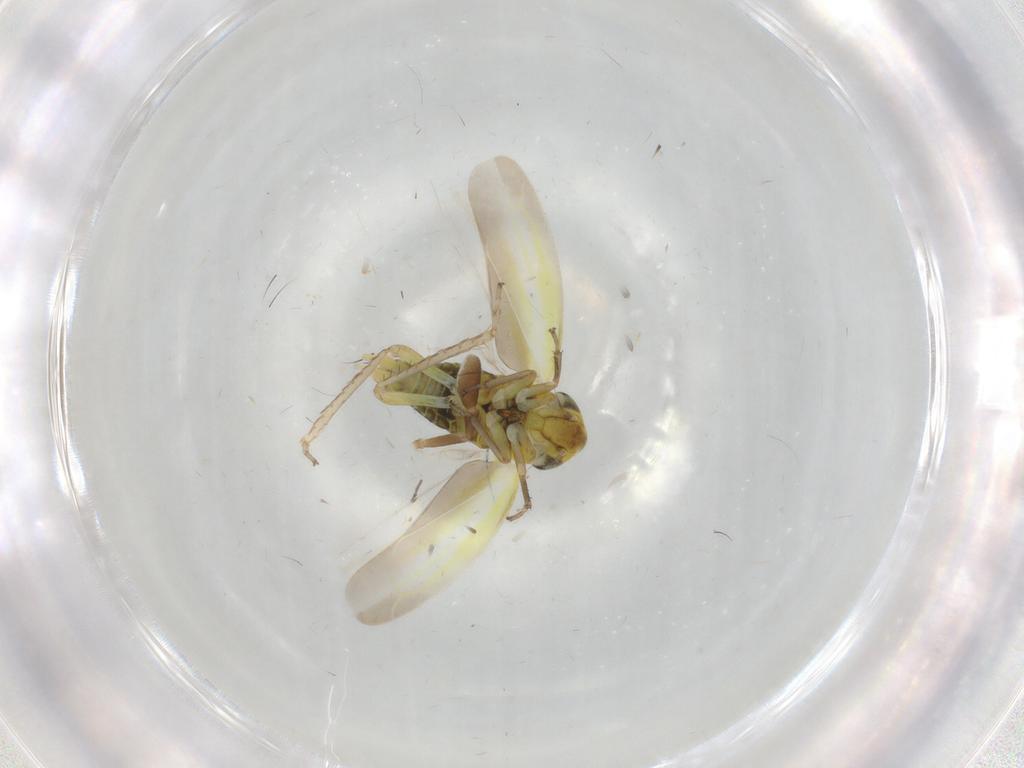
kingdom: Animalia
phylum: Arthropoda
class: Insecta
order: Hemiptera
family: Cicadellidae
